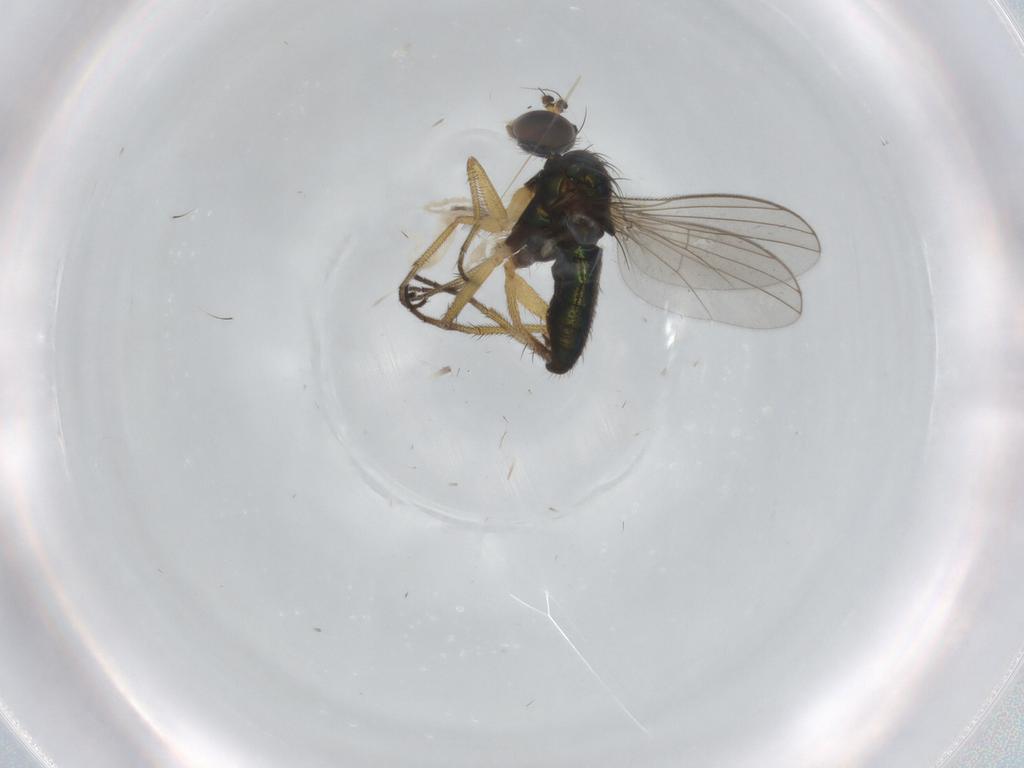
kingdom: Animalia
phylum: Arthropoda
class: Insecta
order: Diptera
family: Dolichopodidae
